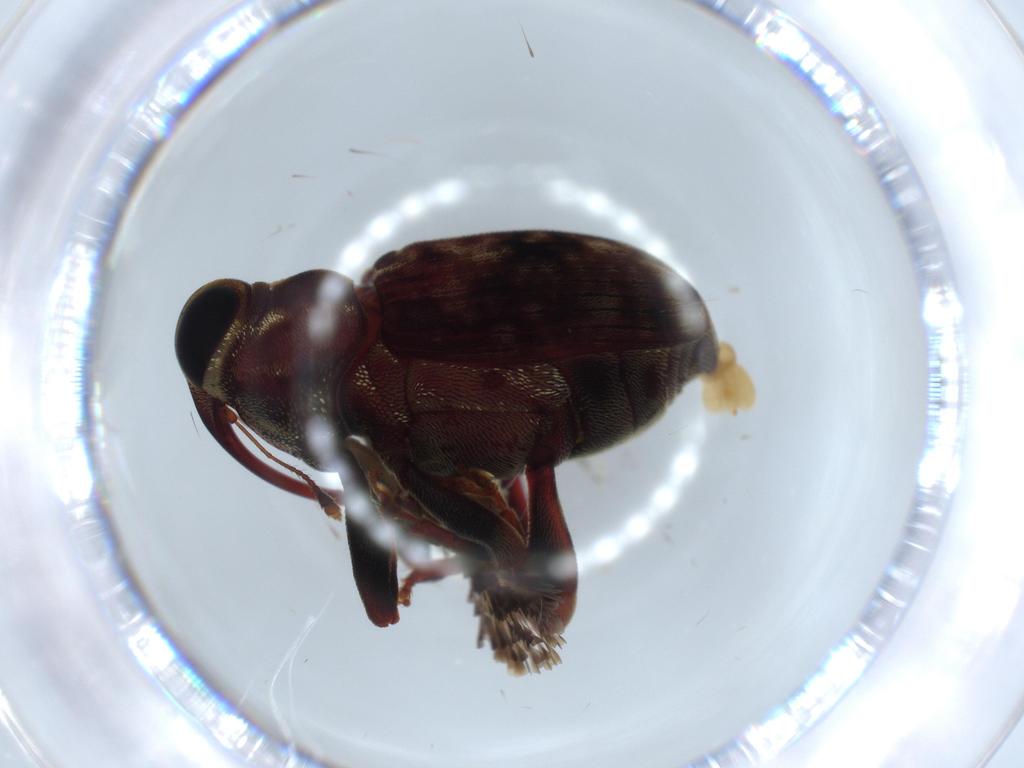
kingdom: Animalia
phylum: Arthropoda
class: Insecta
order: Coleoptera
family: Curculionidae
